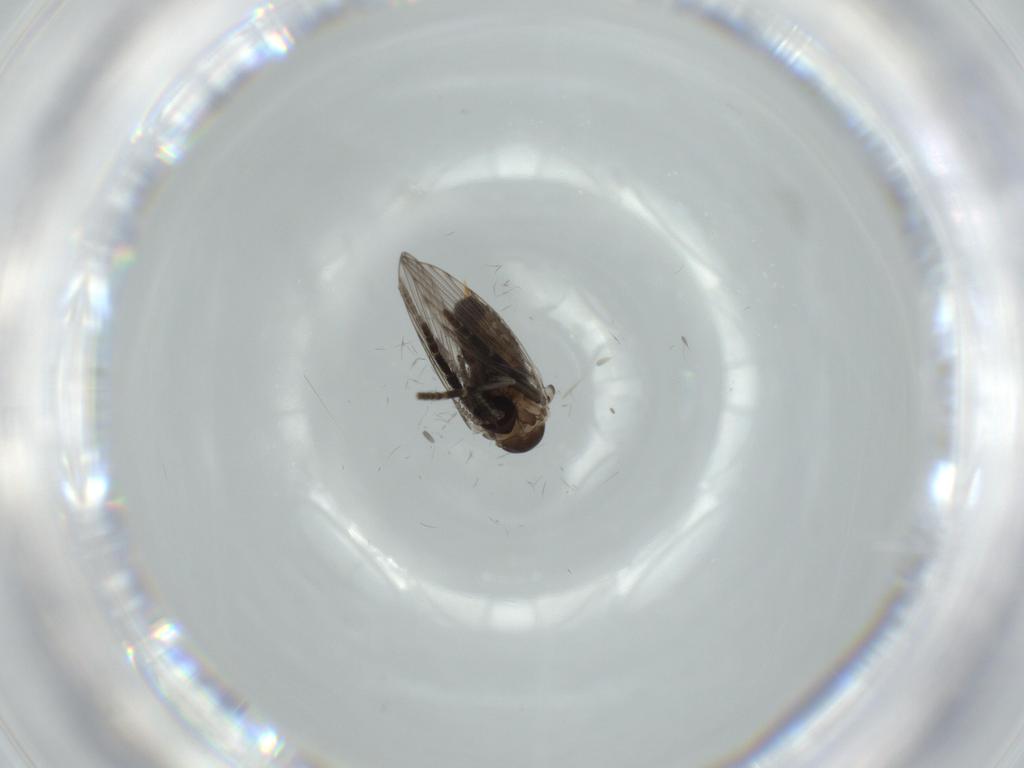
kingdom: Animalia
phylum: Arthropoda
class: Insecta
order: Diptera
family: Psychodidae
